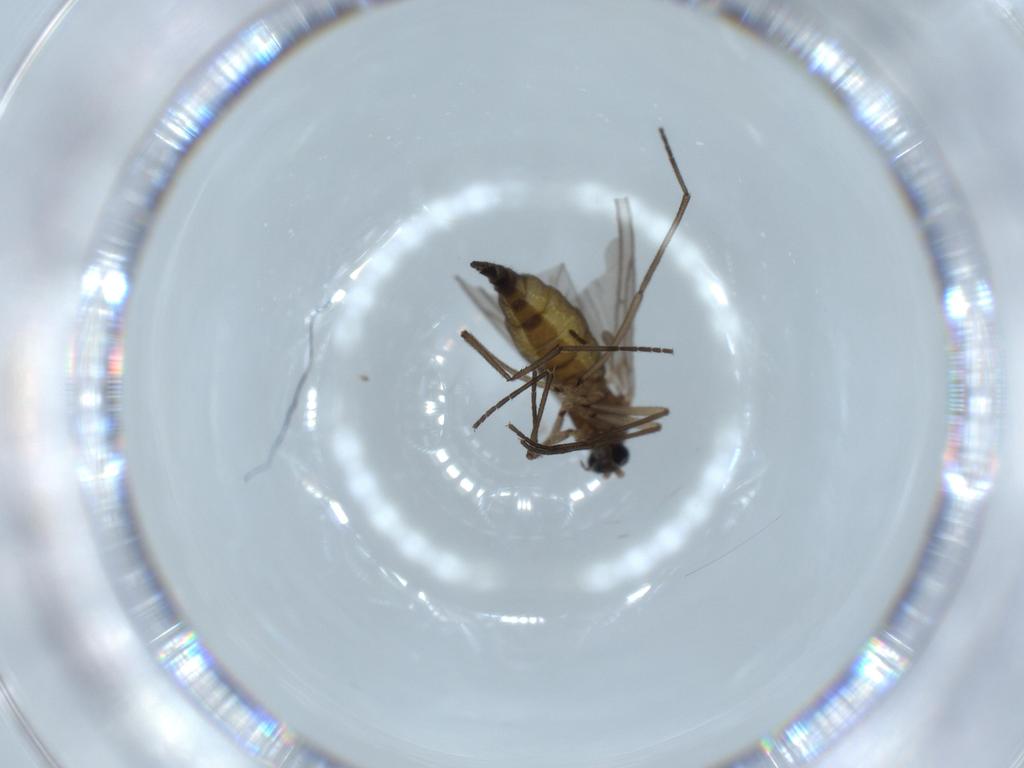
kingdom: Animalia
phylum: Arthropoda
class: Insecta
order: Diptera
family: Sciaridae
